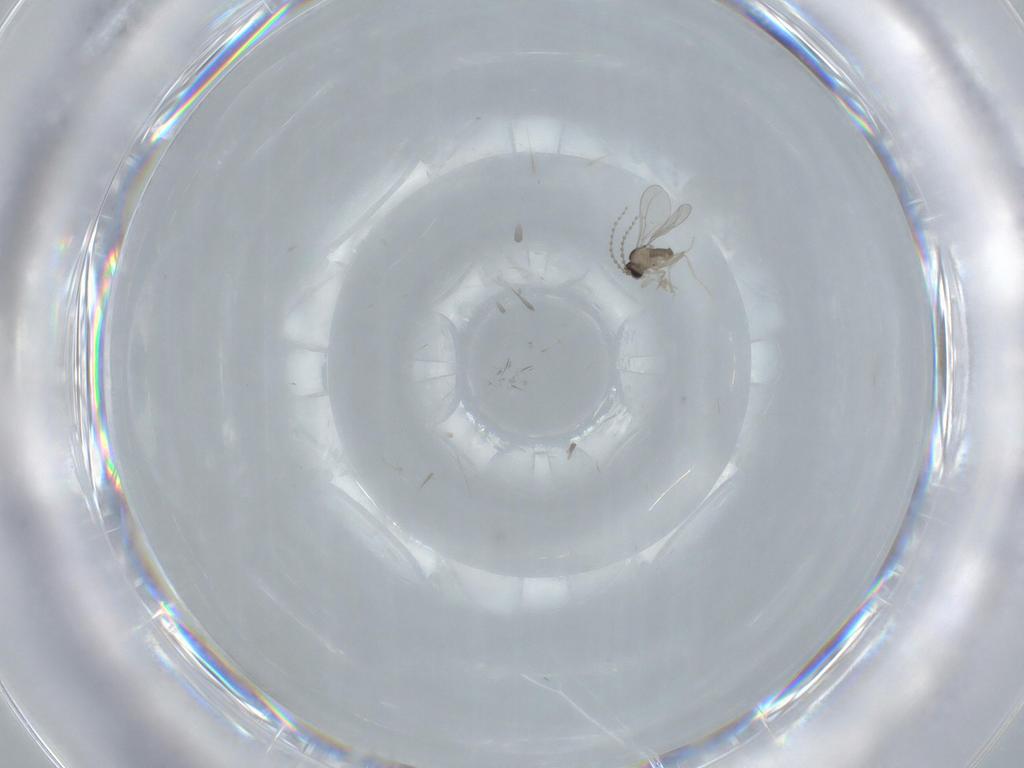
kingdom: Animalia
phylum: Arthropoda
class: Insecta
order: Diptera
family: Cecidomyiidae
